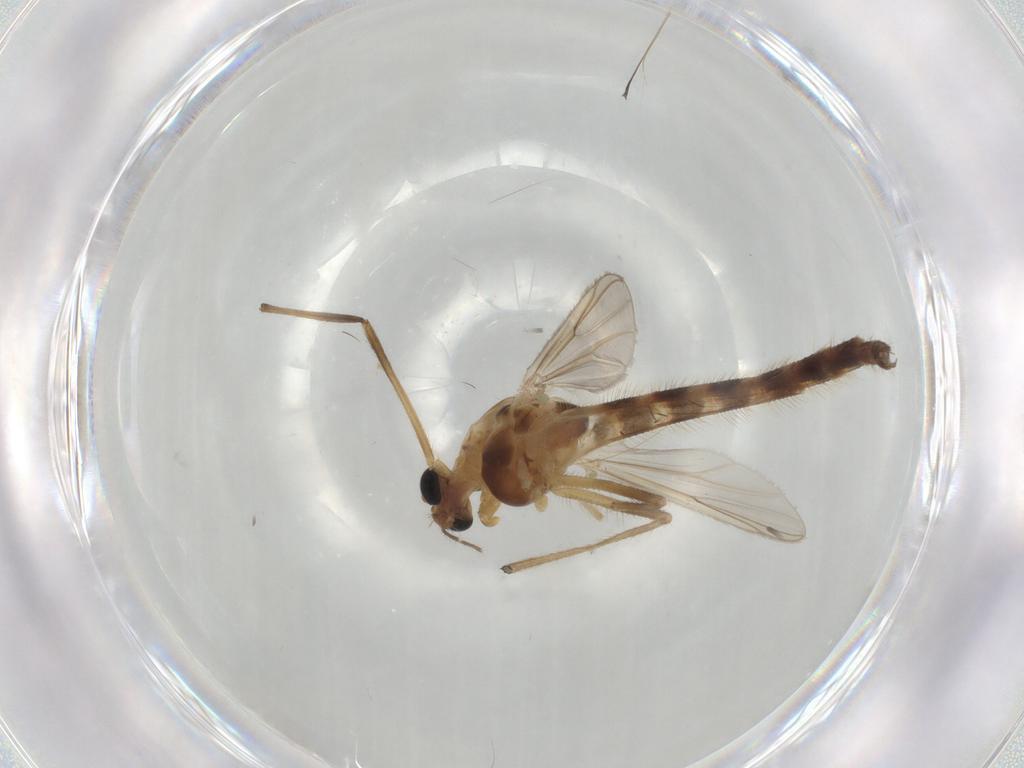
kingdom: Animalia
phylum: Arthropoda
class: Insecta
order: Diptera
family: Chironomidae
